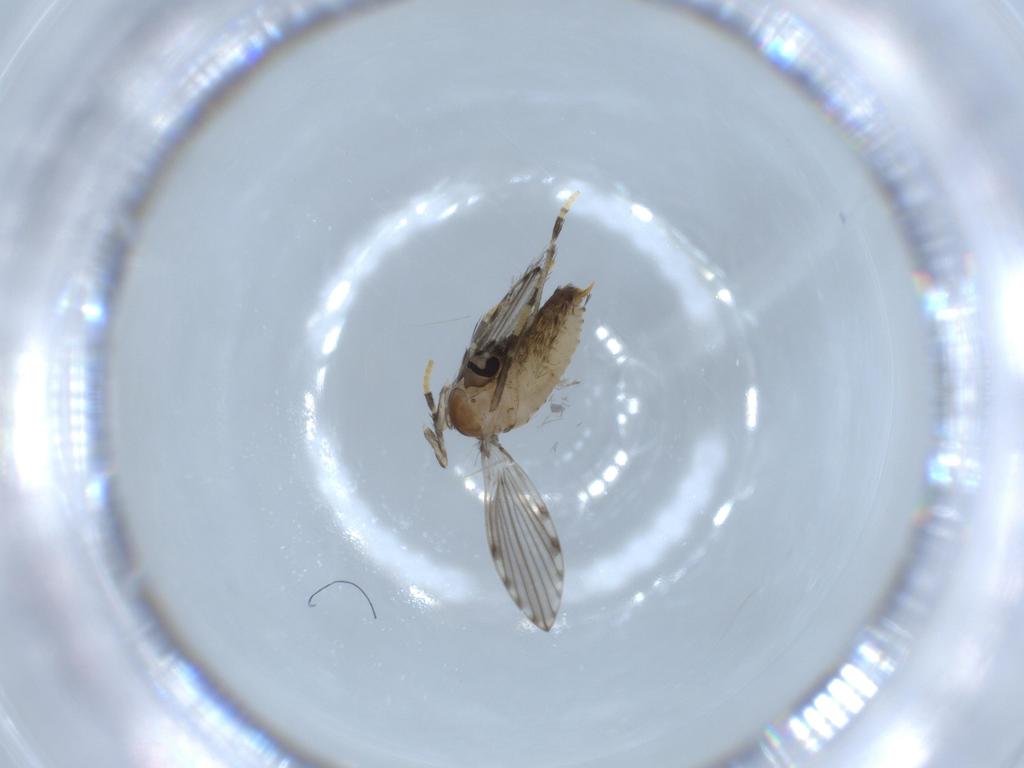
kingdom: Animalia
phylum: Arthropoda
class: Insecta
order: Diptera
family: Psychodidae
